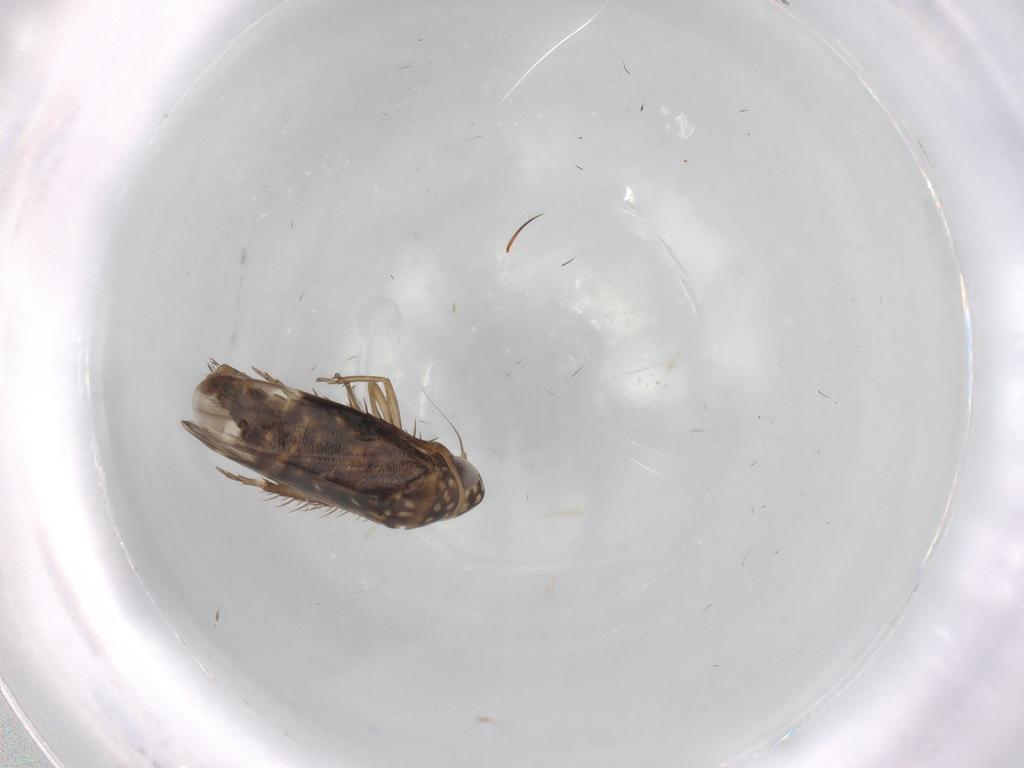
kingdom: Animalia
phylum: Arthropoda
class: Insecta
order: Hemiptera
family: Cicadellidae
